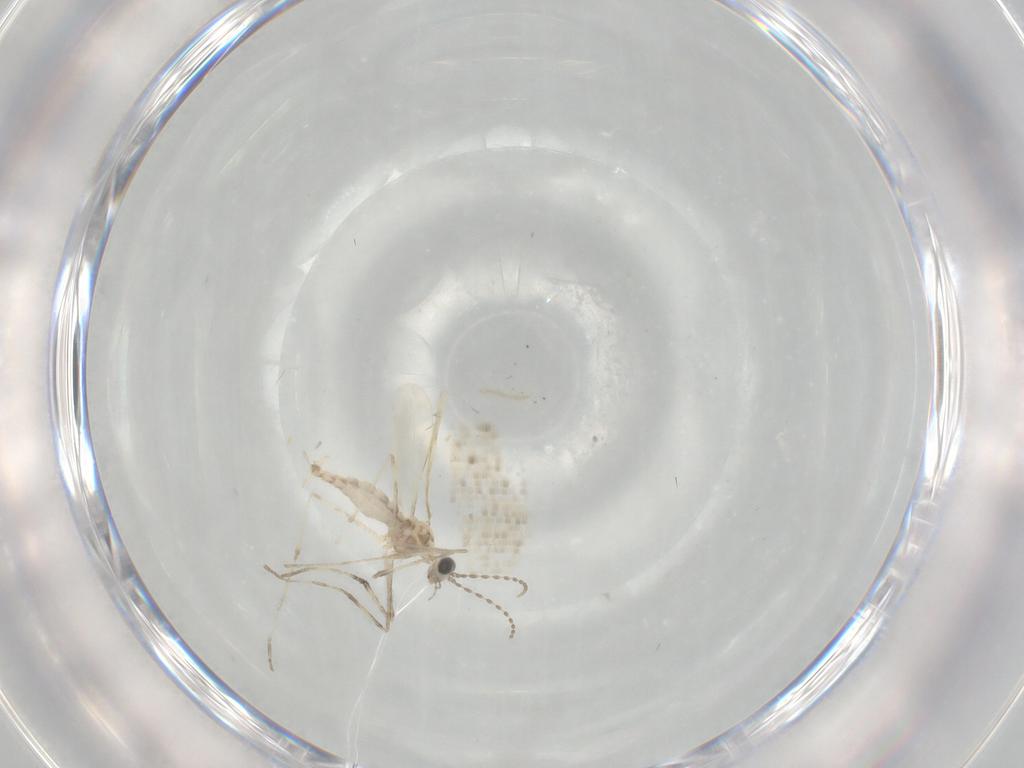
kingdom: Animalia
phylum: Arthropoda
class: Insecta
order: Diptera
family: Cecidomyiidae
